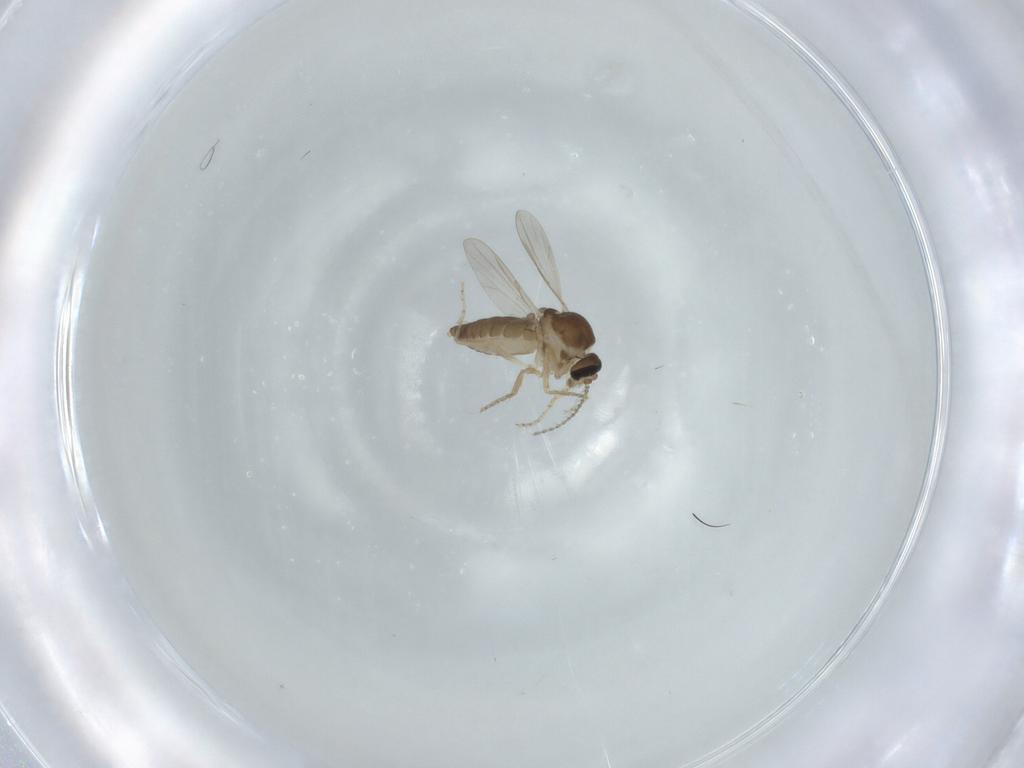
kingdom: Animalia
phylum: Arthropoda
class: Insecta
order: Diptera
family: Ceratopogonidae
